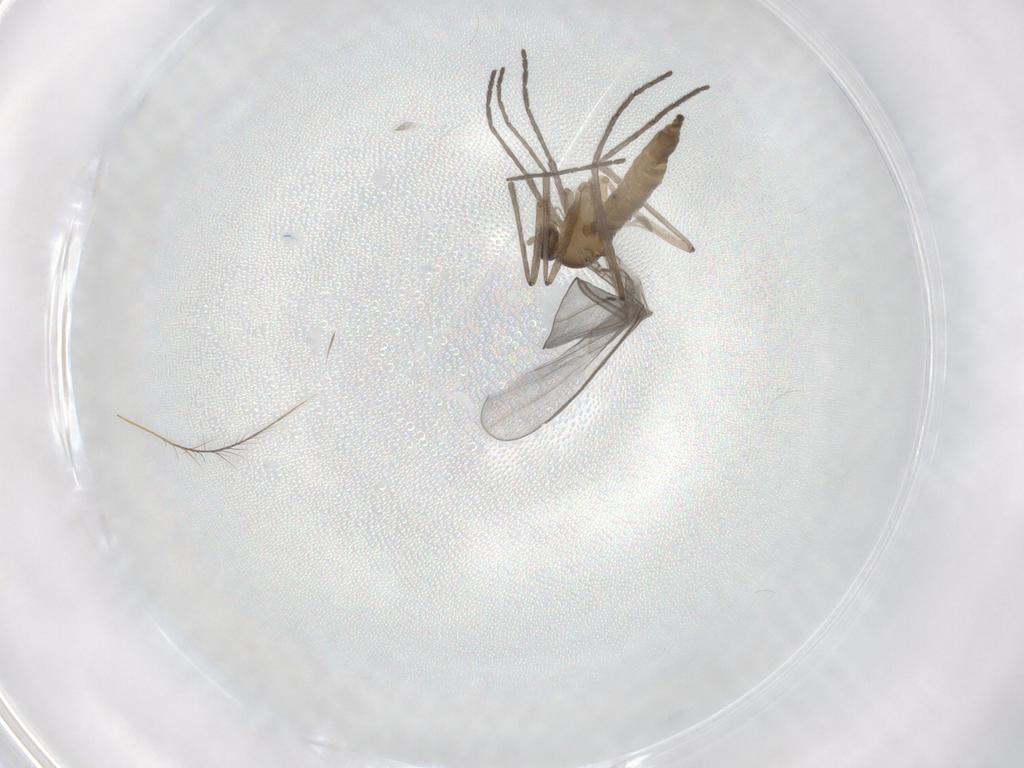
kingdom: Animalia
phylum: Arthropoda
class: Insecta
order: Diptera
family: Cecidomyiidae
